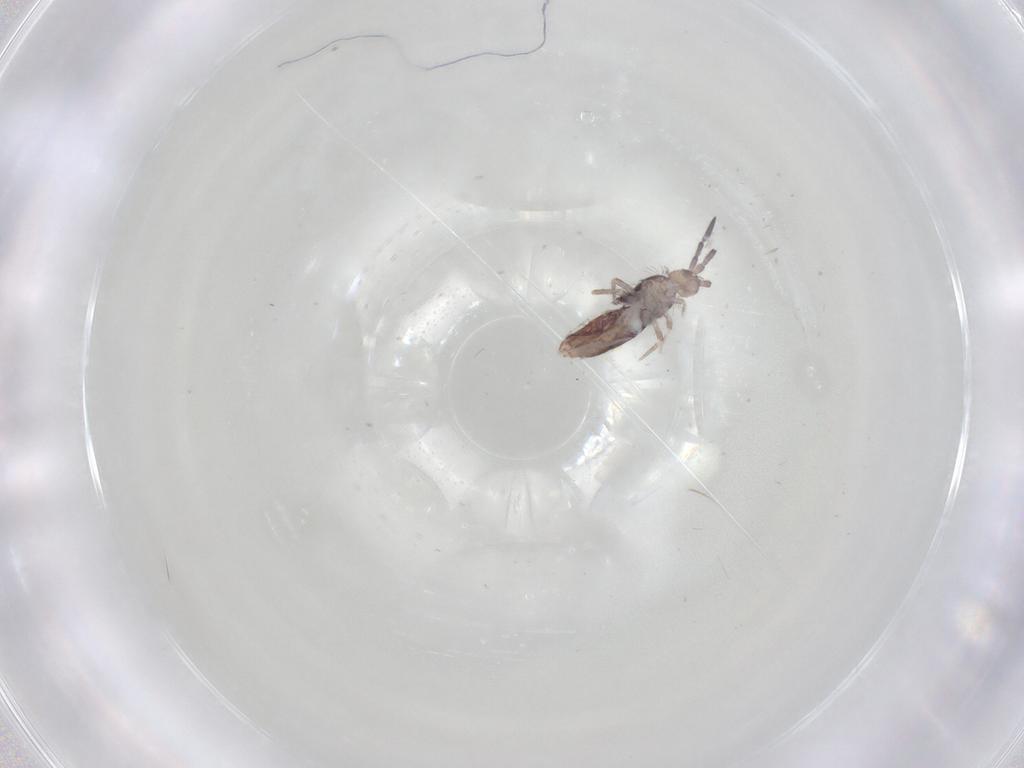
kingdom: Animalia
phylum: Arthropoda
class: Collembola
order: Entomobryomorpha
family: Entomobryidae
